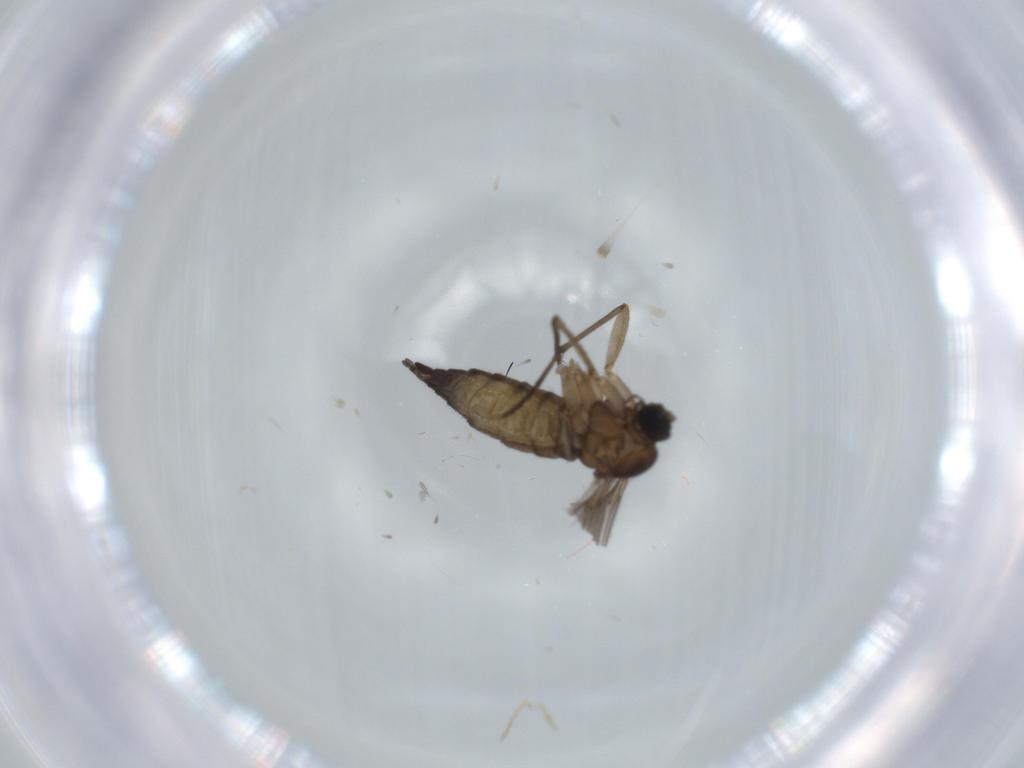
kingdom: Animalia
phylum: Arthropoda
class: Insecta
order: Diptera
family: Sciaridae
